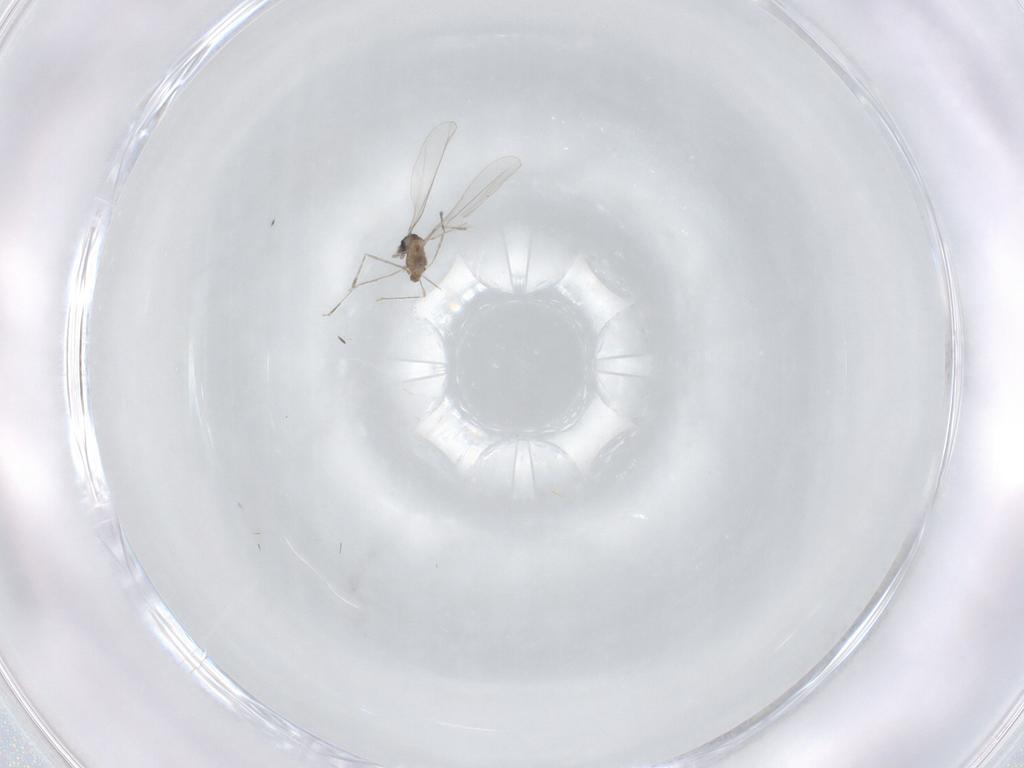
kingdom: Animalia
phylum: Arthropoda
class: Insecta
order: Diptera
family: Cecidomyiidae
